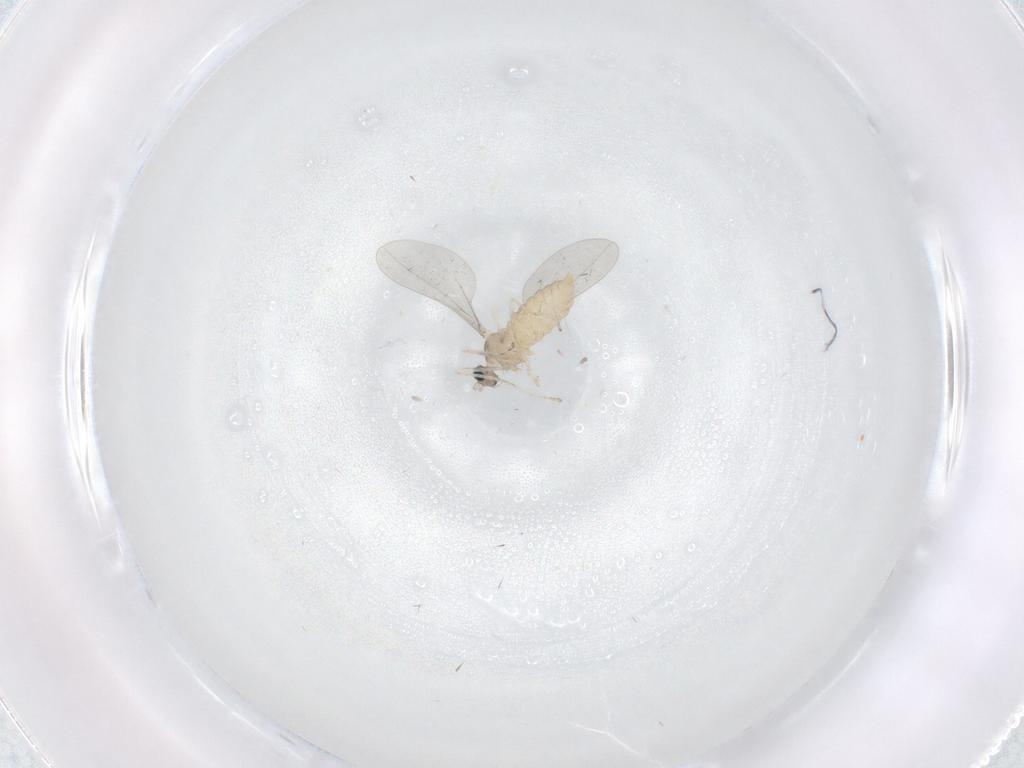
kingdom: Animalia
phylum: Arthropoda
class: Insecta
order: Diptera
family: Cecidomyiidae
